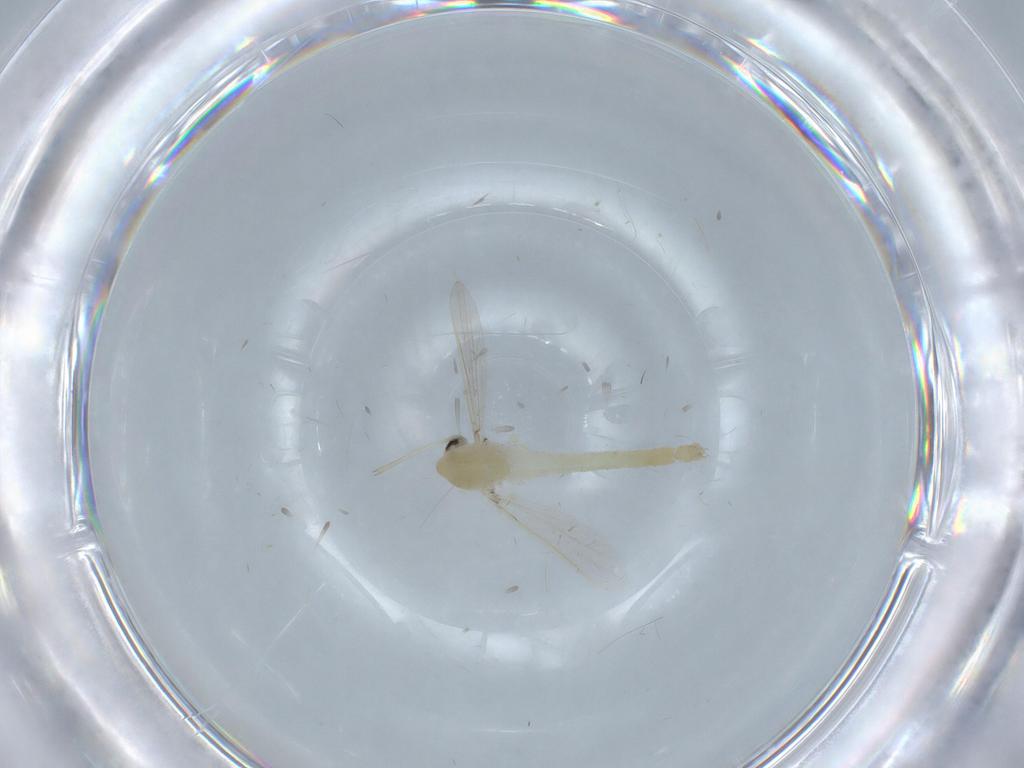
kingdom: Animalia
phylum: Arthropoda
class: Insecta
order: Diptera
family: Chironomidae
